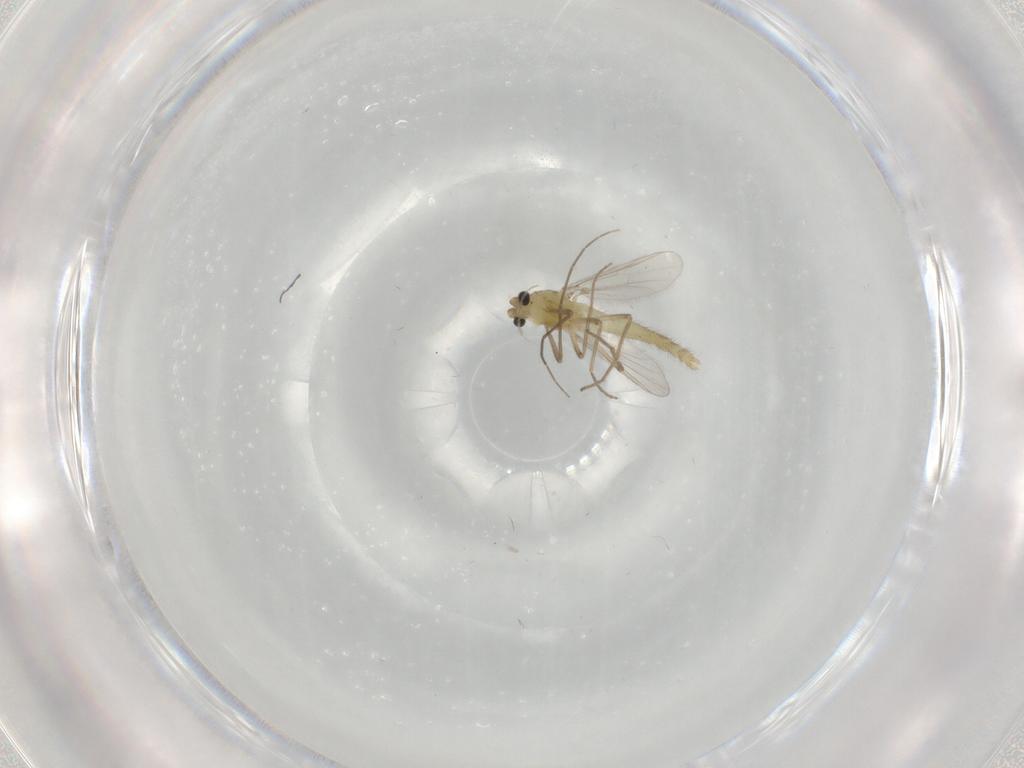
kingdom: Animalia
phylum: Arthropoda
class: Insecta
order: Diptera
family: Chironomidae
